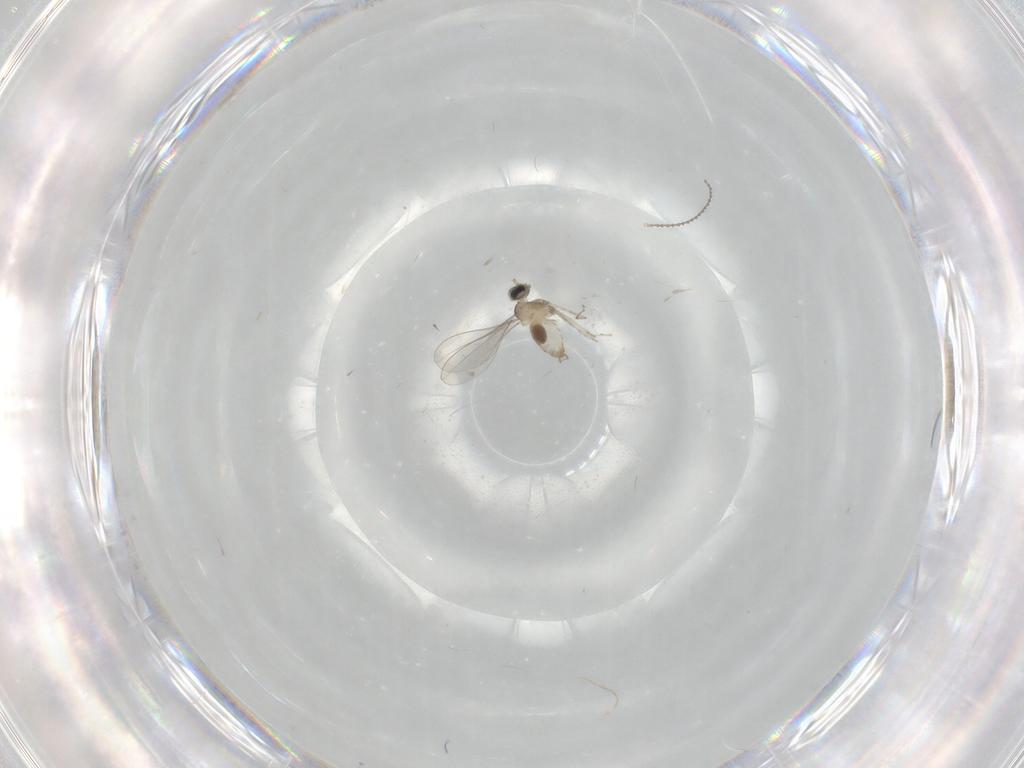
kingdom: Animalia
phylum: Arthropoda
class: Insecta
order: Diptera
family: Cecidomyiidae
